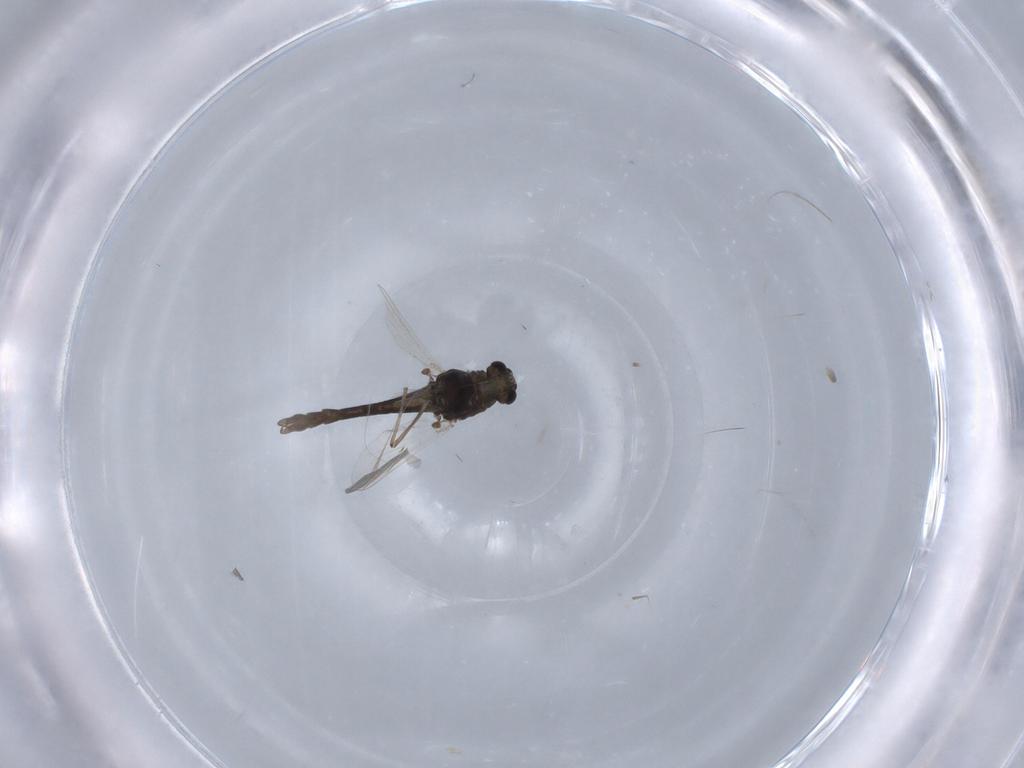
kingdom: Animalia
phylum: Arthropoda
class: Insecta
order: Diptera
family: Chironomidae
